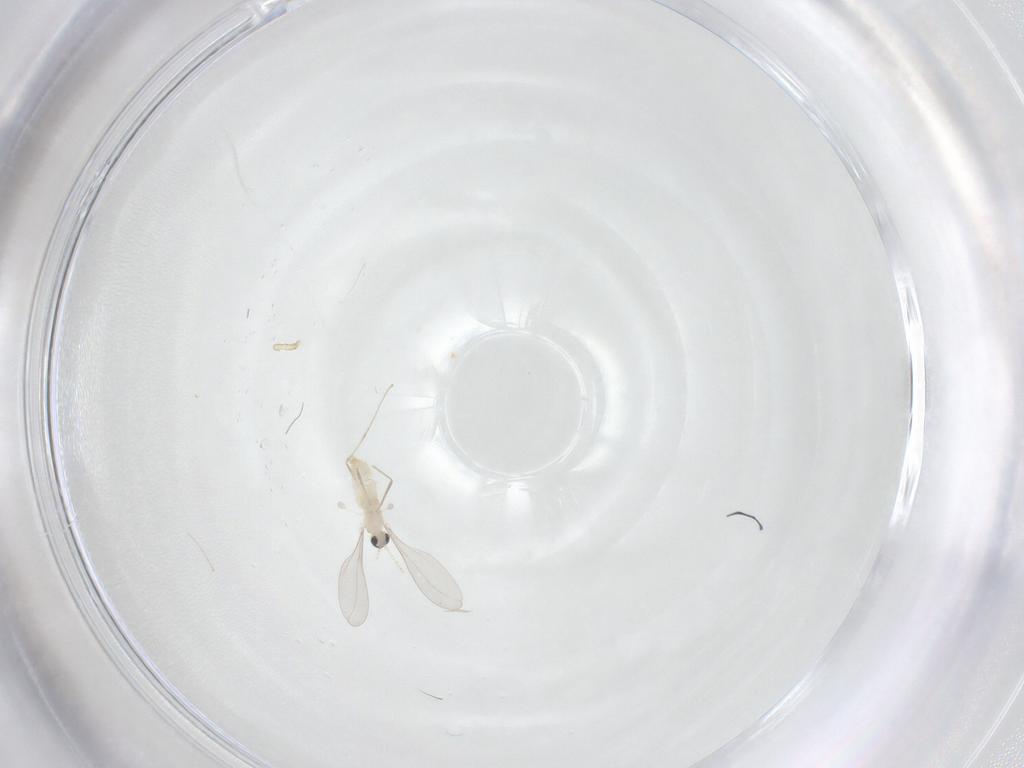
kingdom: Animalia
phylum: Arthropoda
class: Insecta
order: Diptera
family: Cecidomyiidae
